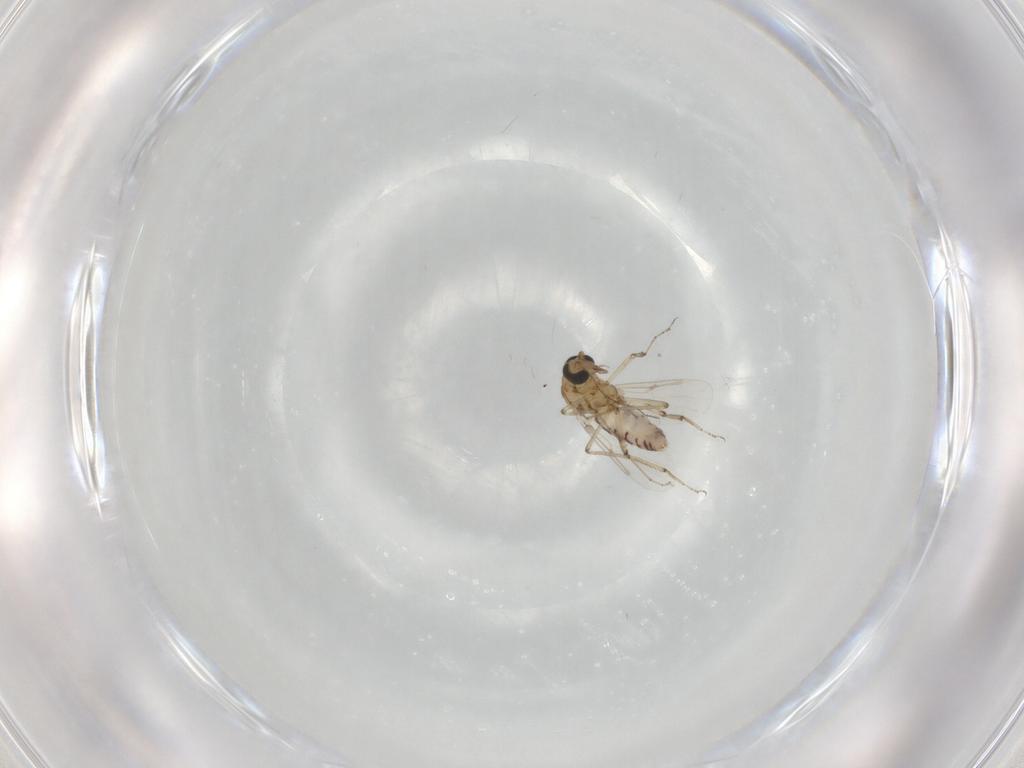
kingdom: Animalia
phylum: Arthropoda
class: Insecta
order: Diptera
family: Ceratopogonidae
